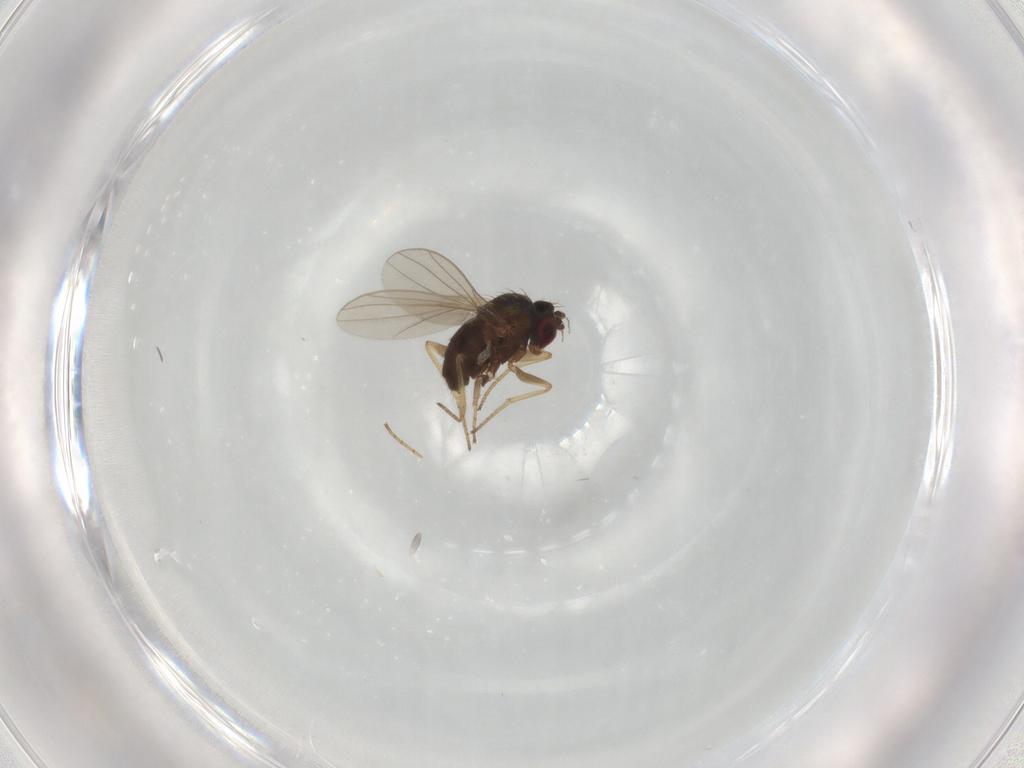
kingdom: Animalia
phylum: Arthropoda
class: Insecta
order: Diptera
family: Dolichopodidae
